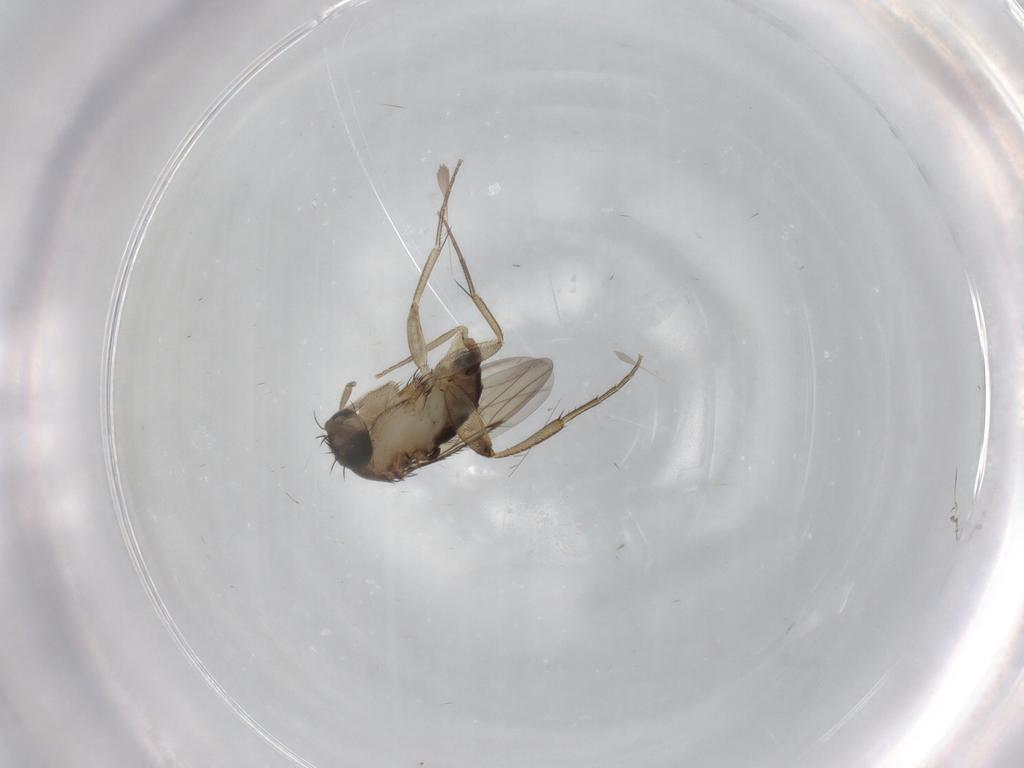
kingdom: Animalia
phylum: Arthropoda
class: Insecta
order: Diptera
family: Phoridae
